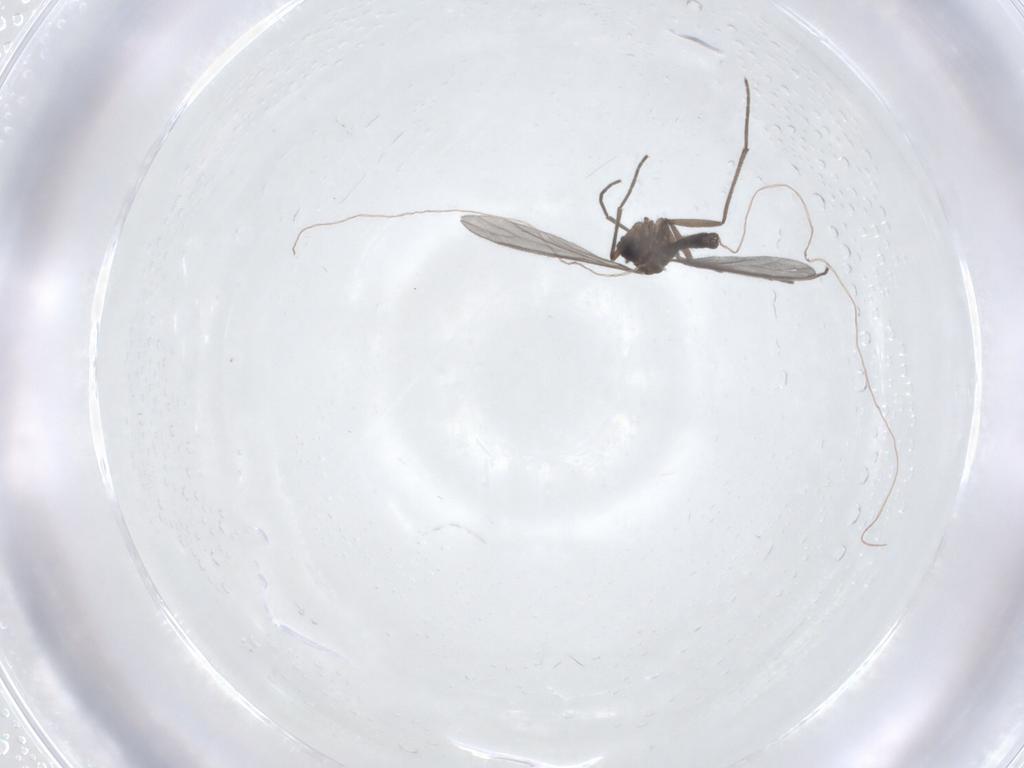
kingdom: Animalia
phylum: Arthropoda
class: Insecta
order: Diptera
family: Sciaridae
